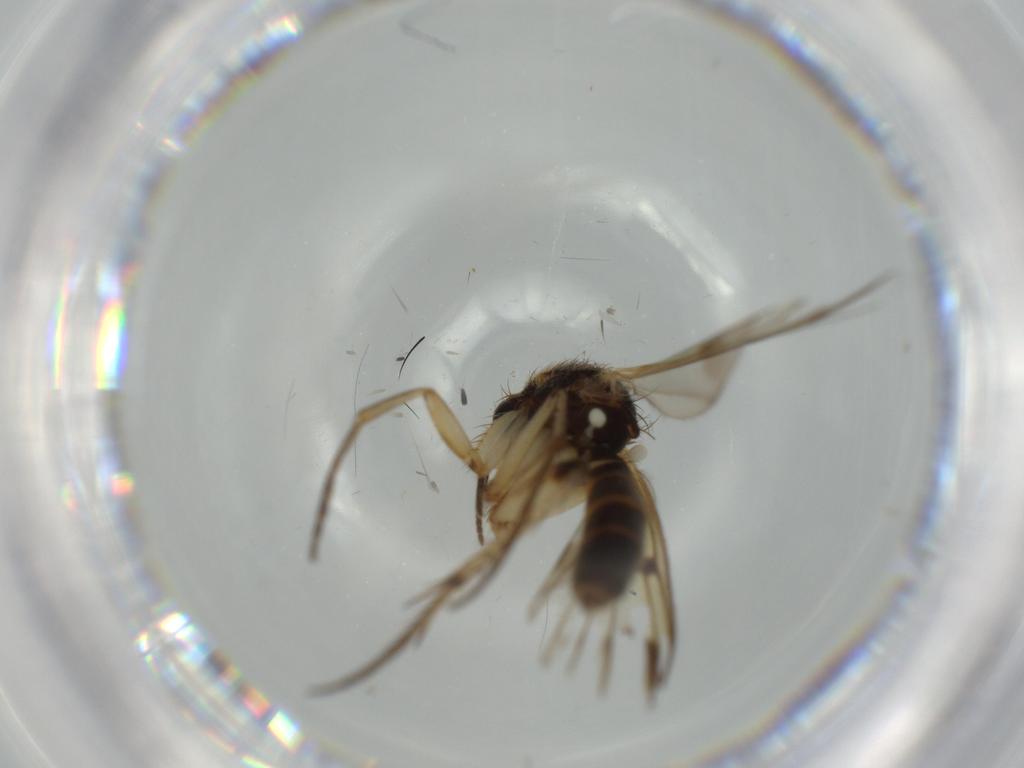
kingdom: Animalia
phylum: Arthropoda
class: Insecta
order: Diptera
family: Mycetophilidae
